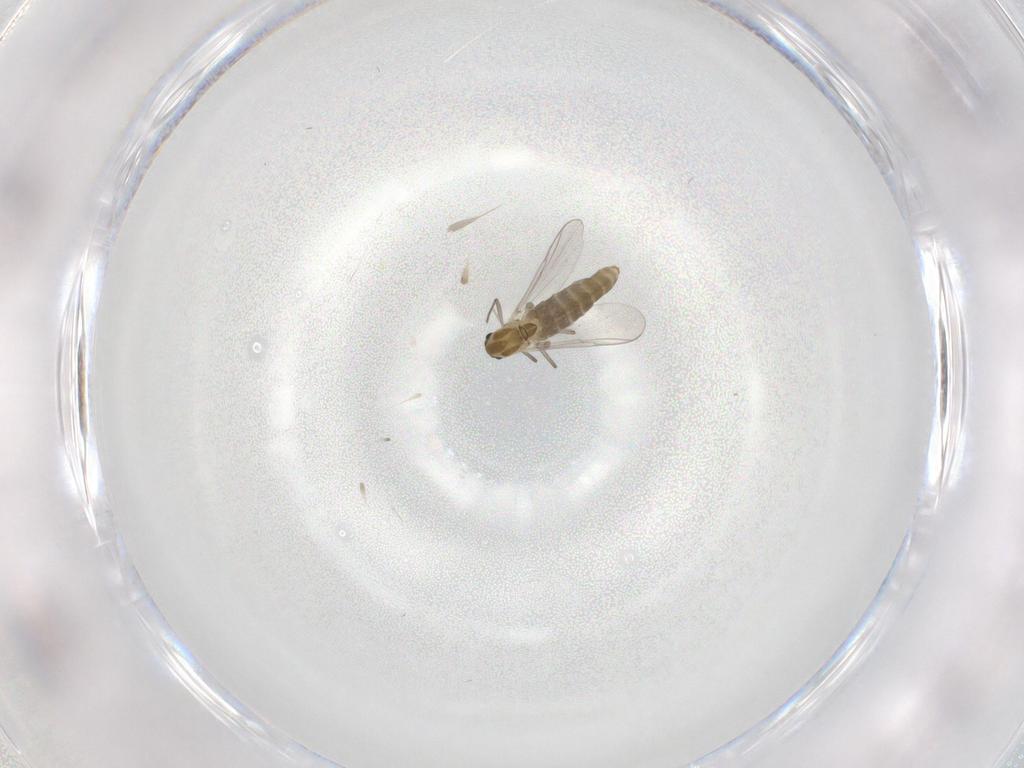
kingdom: Animalia
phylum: Arthropoda
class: Insecta
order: Diptera
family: Chironomidae
